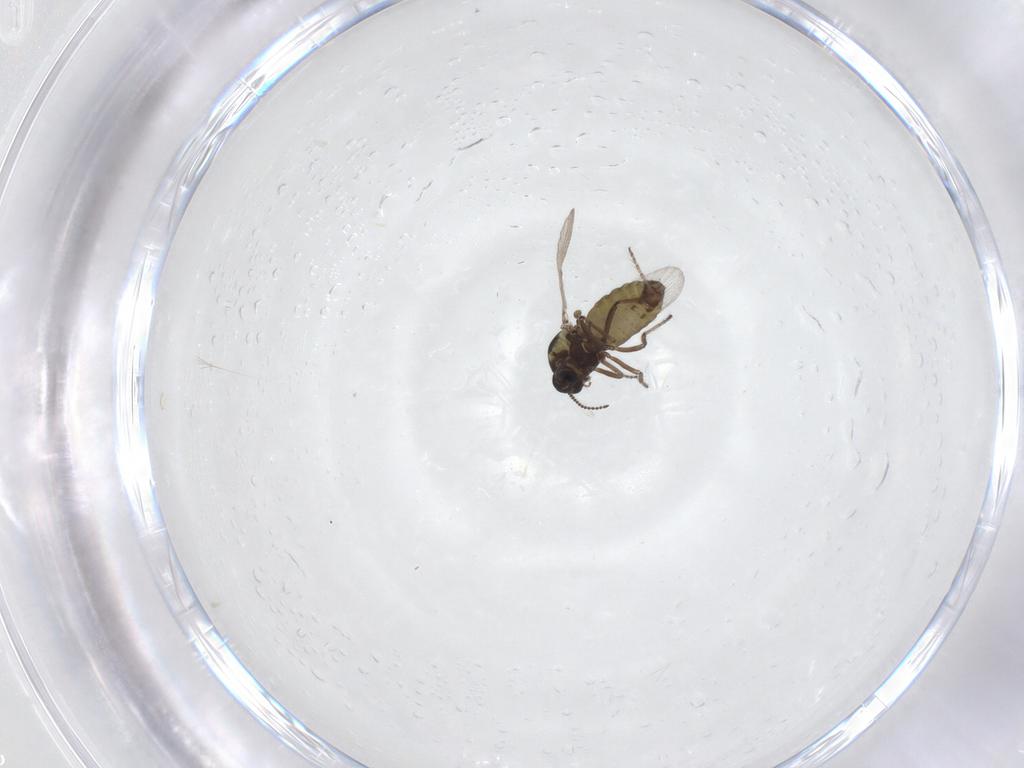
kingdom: Animalia
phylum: Arthropoda
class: Insecta
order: Diptera
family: Ceratopogonidae
